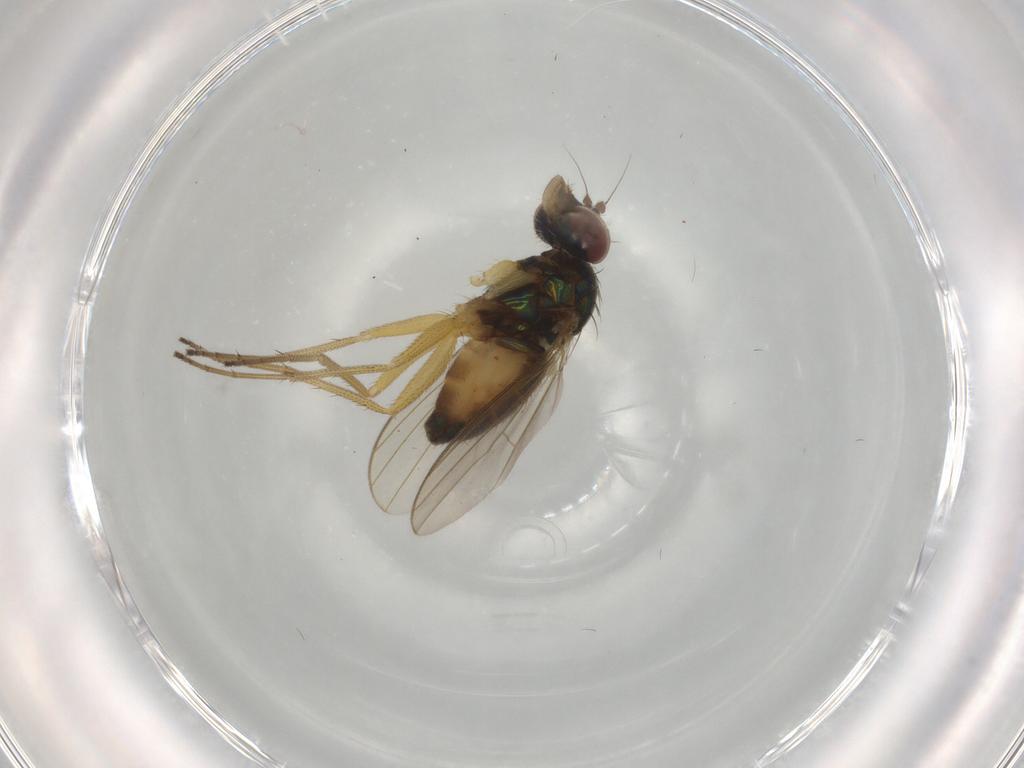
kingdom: Animalia
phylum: Arthropoda
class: Insecta
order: Diptera
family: Dolichopodidae
